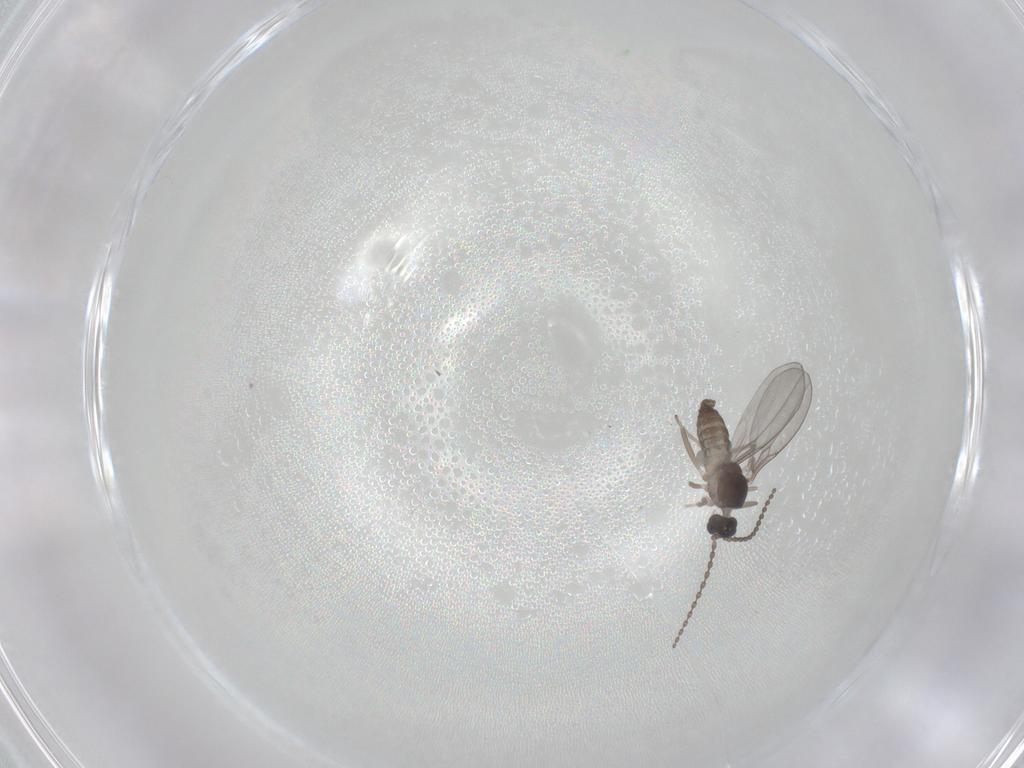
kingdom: Animalia
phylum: Arthropoda
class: Insecta
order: Diptera
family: Cecidomyiidae
